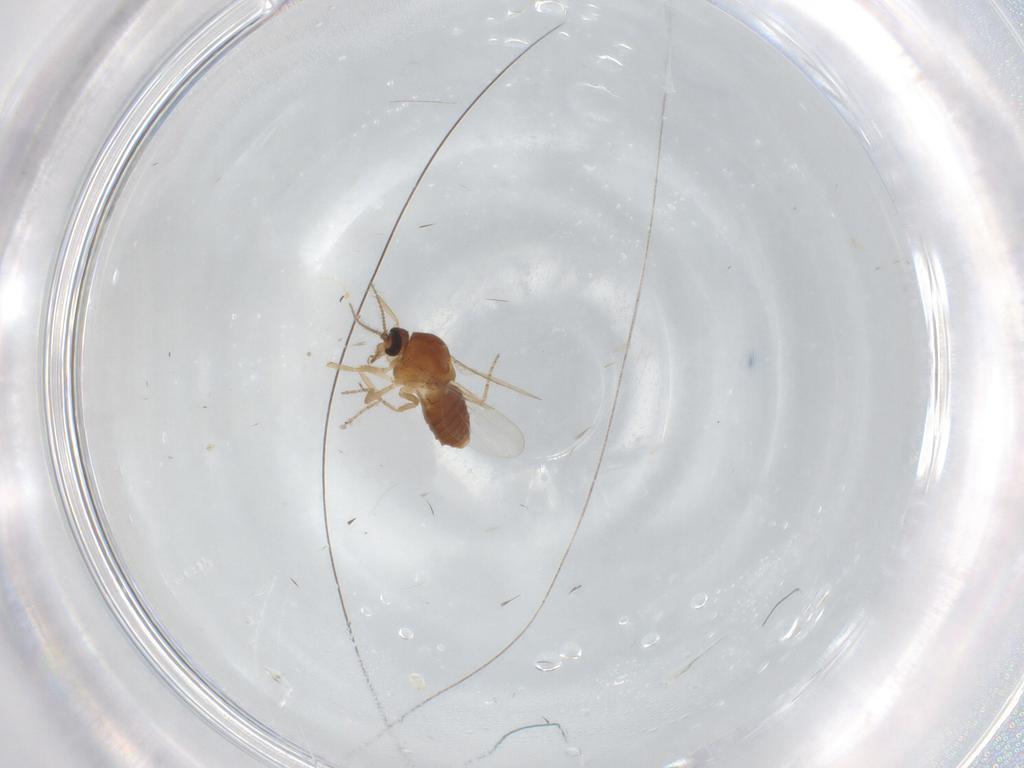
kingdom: Animalia
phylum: Arthropoda
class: Insecta
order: Diptera
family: Ceratopogonidae
